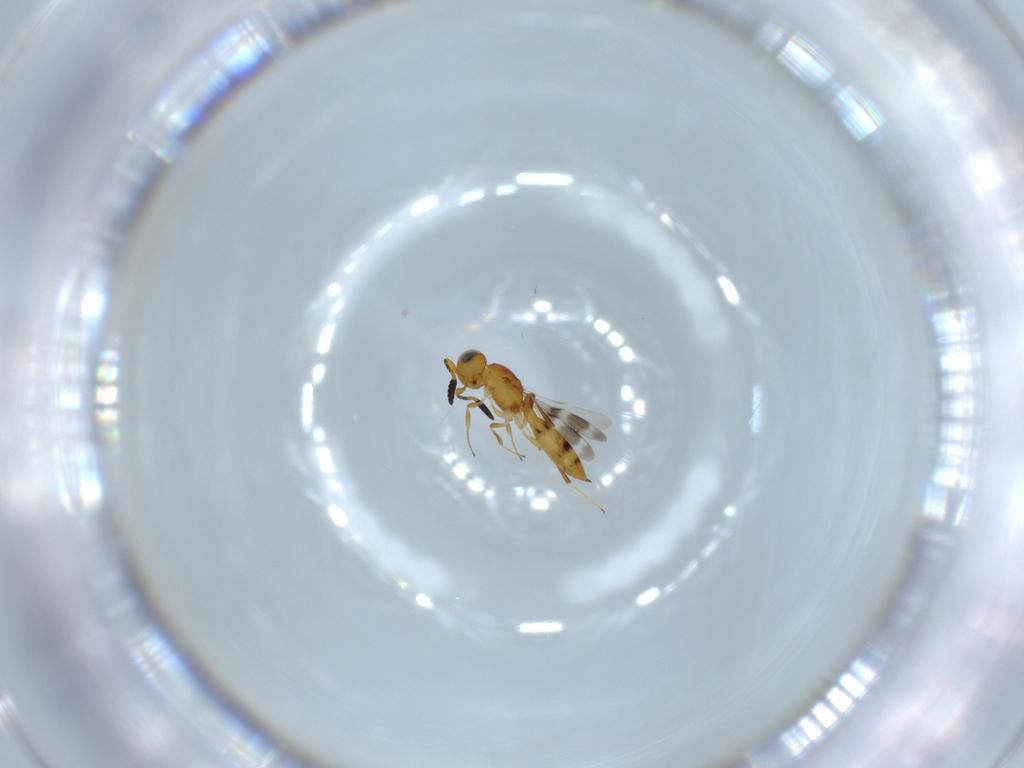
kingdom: Animalia
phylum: Arthropoda
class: Insecta
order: Hymenoptera
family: Scelionidae
